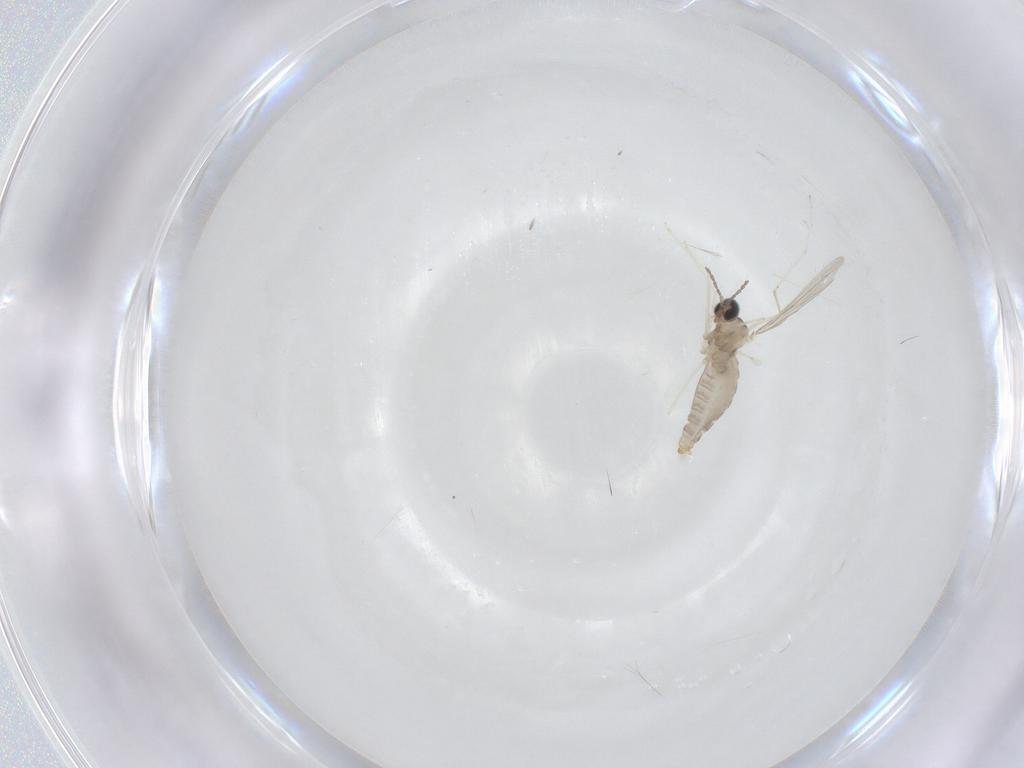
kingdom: Animalia
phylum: Arthropoda
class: Insecta
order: Diptera
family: Cecidomyiidae
